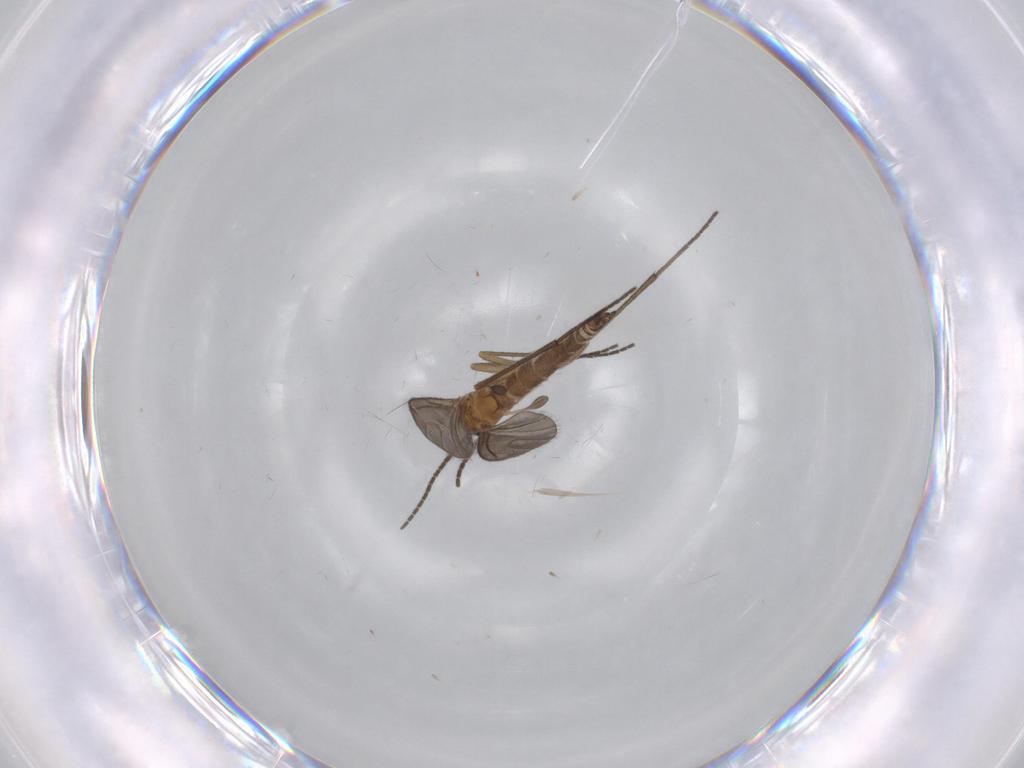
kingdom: Animalia
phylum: Arthropoda
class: Insecta
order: Diptera
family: Sciaridae
